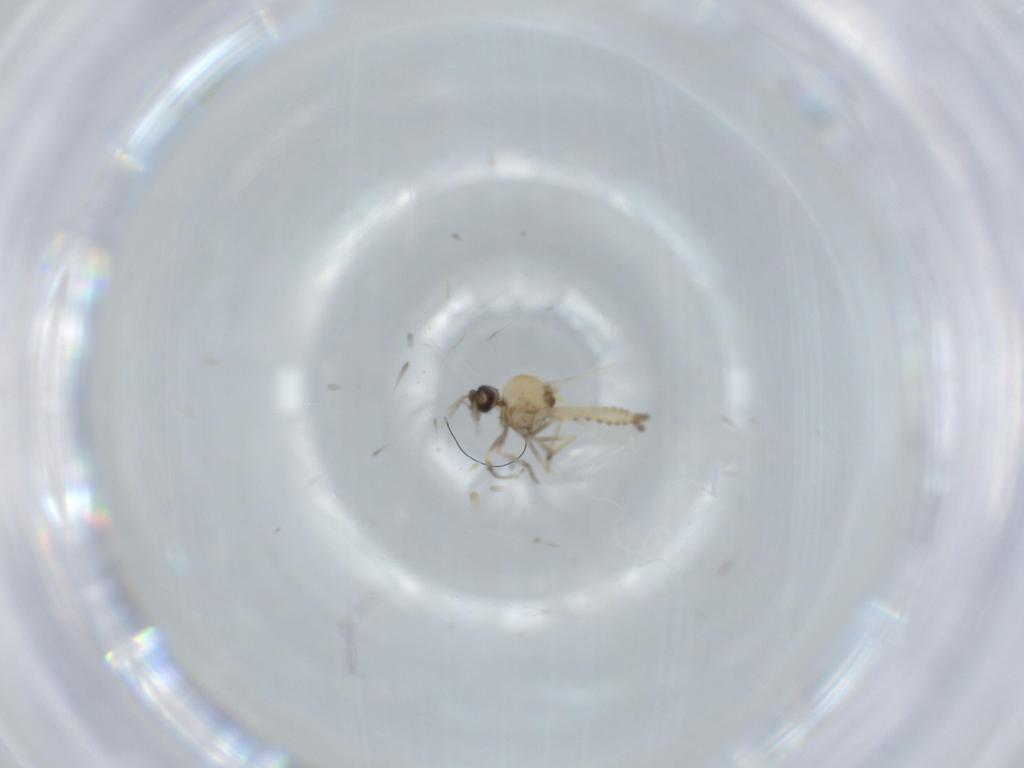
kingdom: Animalia
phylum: Arthropoda
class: Insecta
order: Diptera
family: Ceratopogonidae
